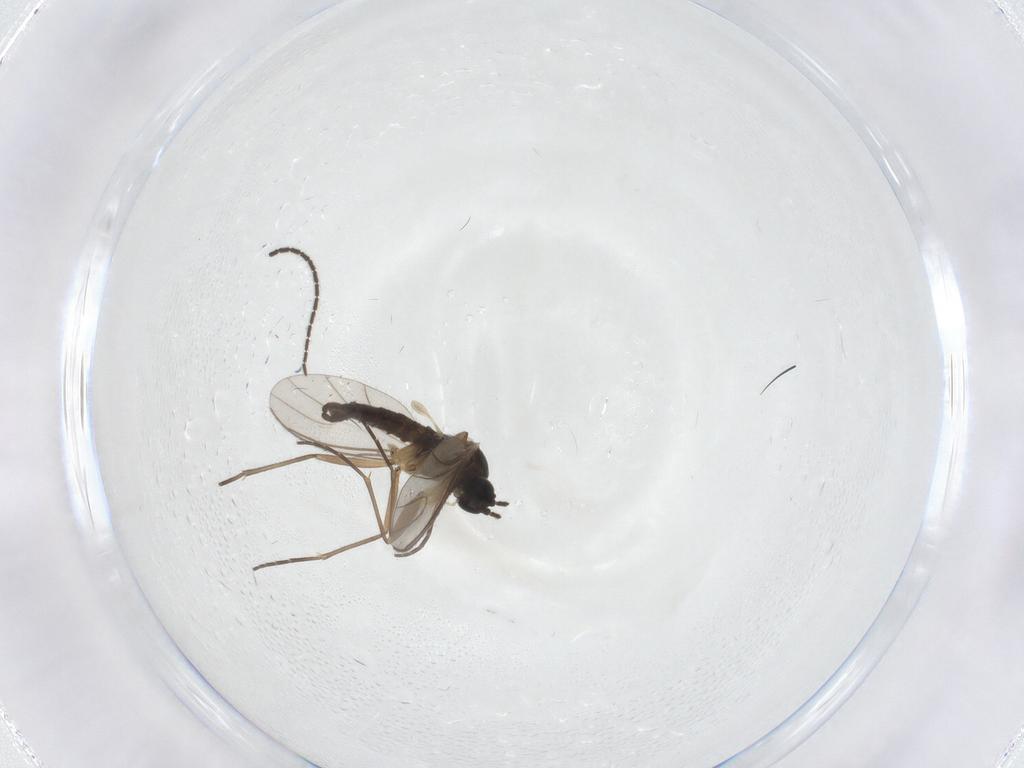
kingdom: Animalia
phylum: Arthropoda
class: Insecta
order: Diptera
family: Sciaridae
